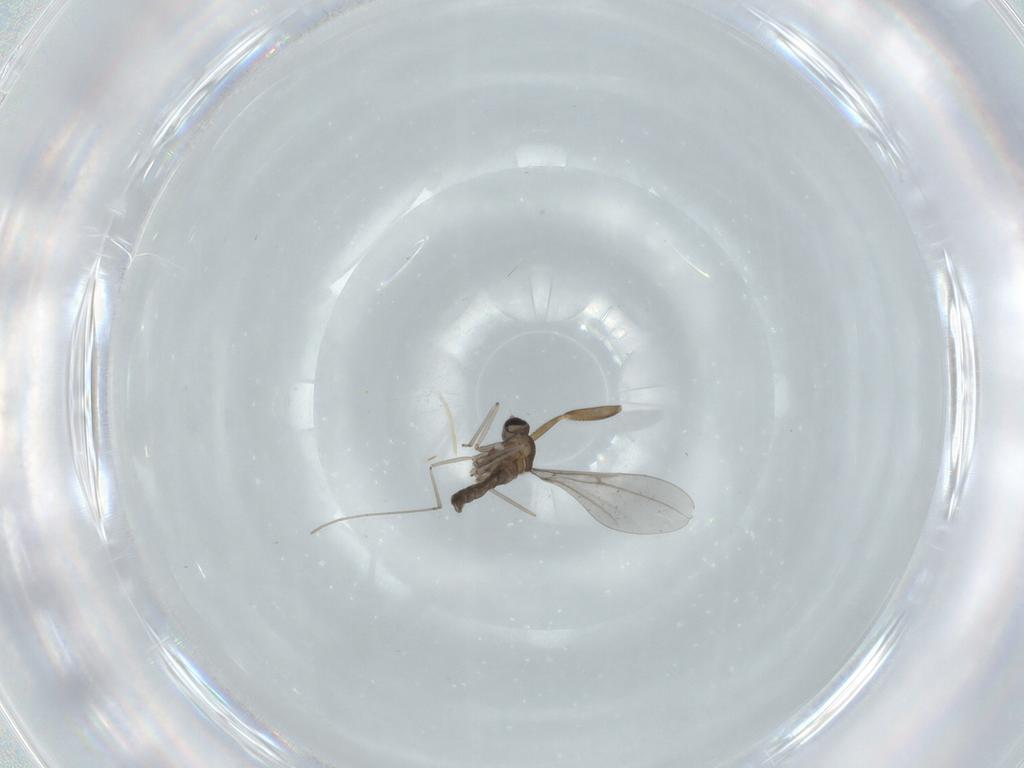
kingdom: Animalia
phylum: Arthropoda
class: Insecta
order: Diptera
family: Cecidomyiidae
